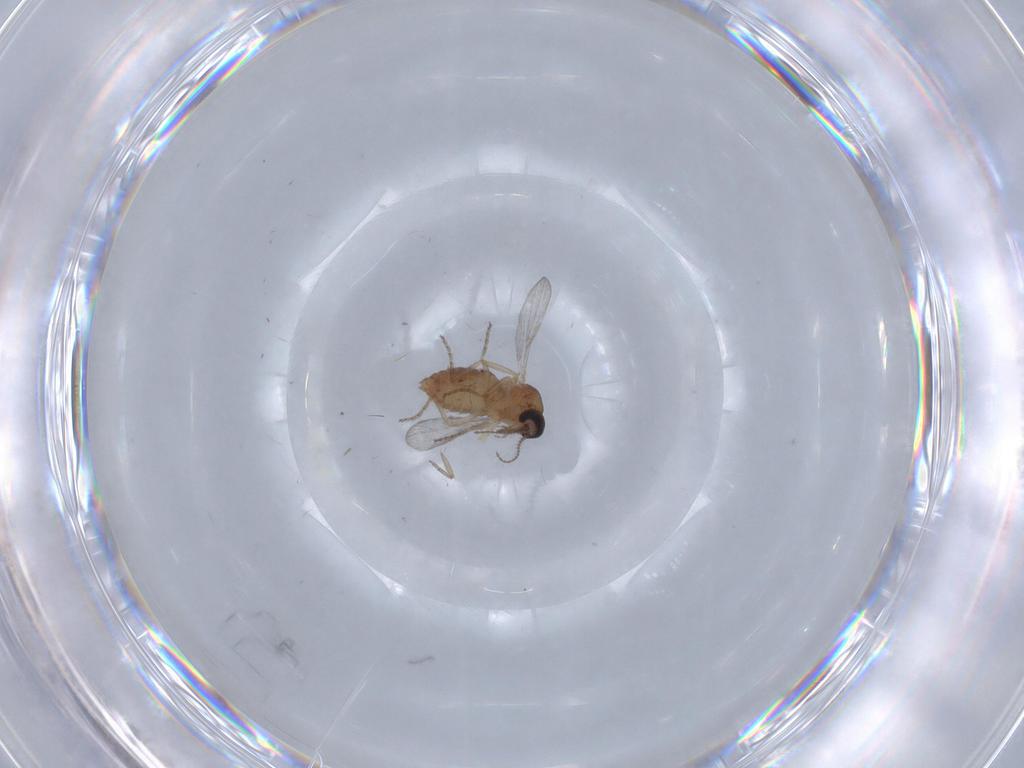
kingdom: Animalia
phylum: Arthropoda
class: Insecta
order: Diptera
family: Ceratopogonidae
